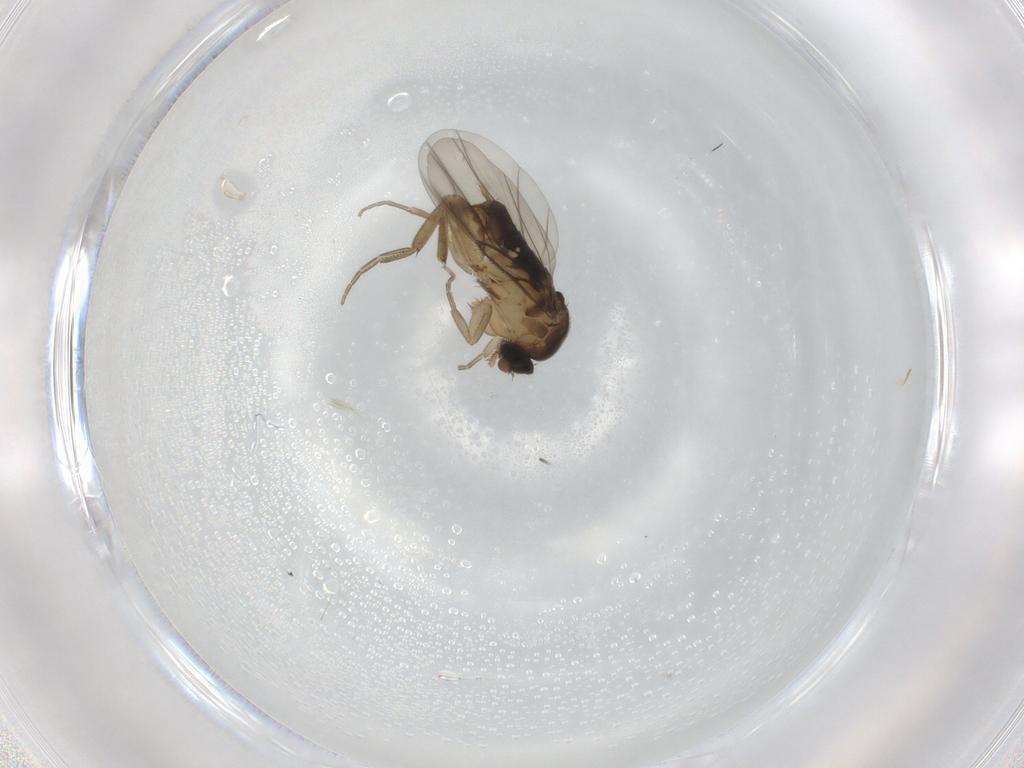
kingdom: Animalia
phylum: Arthropoda
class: Insecta
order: Diptera
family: Phoridae
